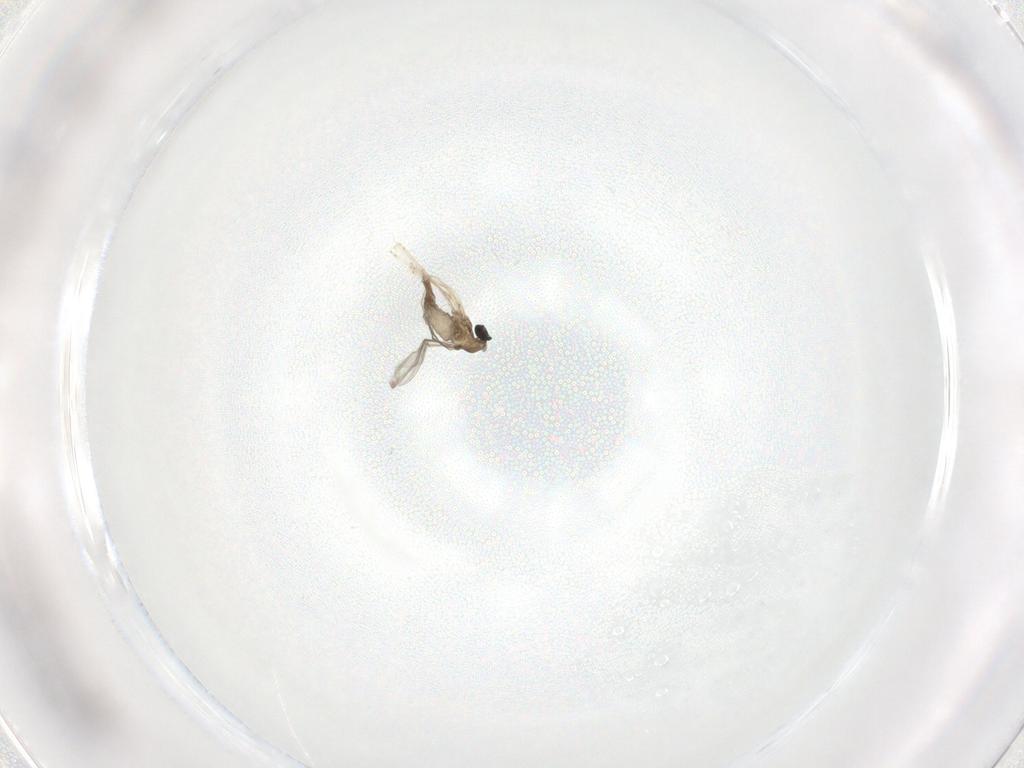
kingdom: Animalia
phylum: Arthropoda
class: Insecta
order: Diptera
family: Cecidomyiidae
